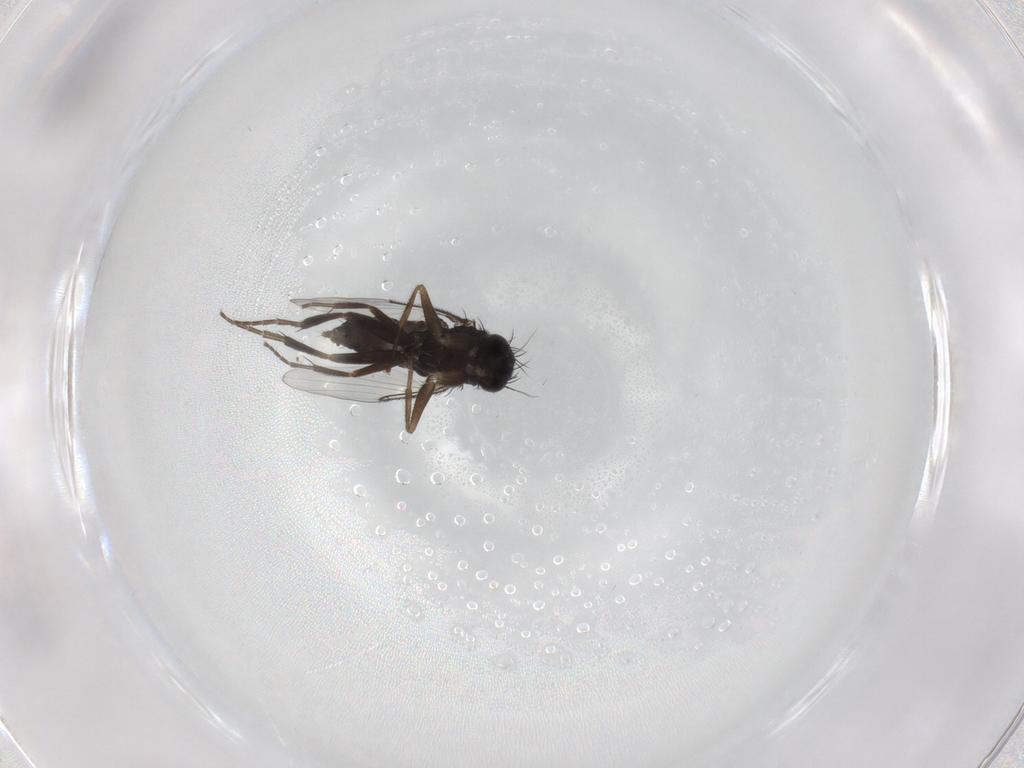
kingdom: Animalia
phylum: Arthropoda
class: Insecta
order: Diptera
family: Phoridae
